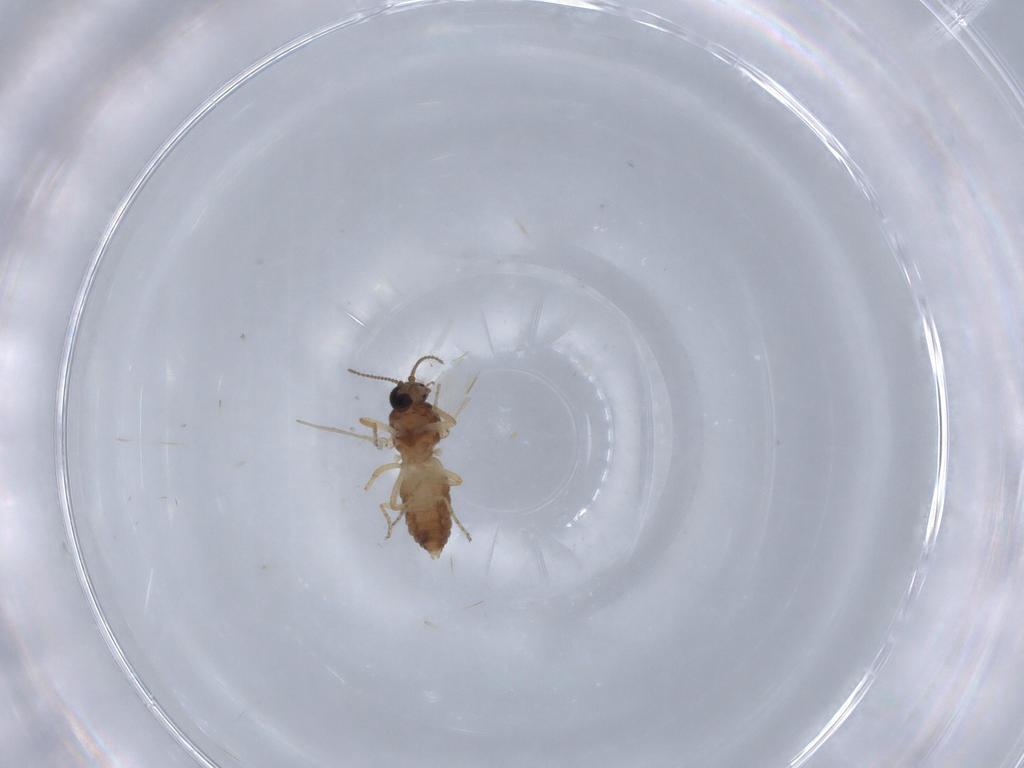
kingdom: Animalia
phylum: Arthropoda
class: Insecta
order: Diptera
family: Ceratopogonidae
